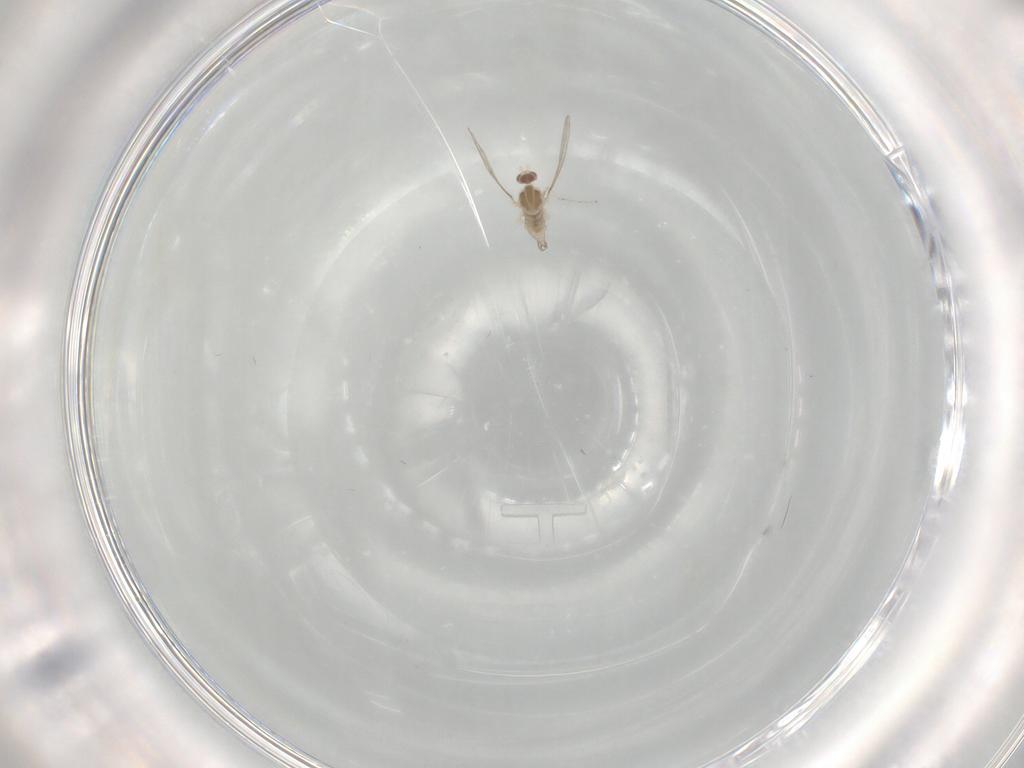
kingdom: Animalia
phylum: Arthropoda
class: Insecta
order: Diptera
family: Cecidomyiidae
